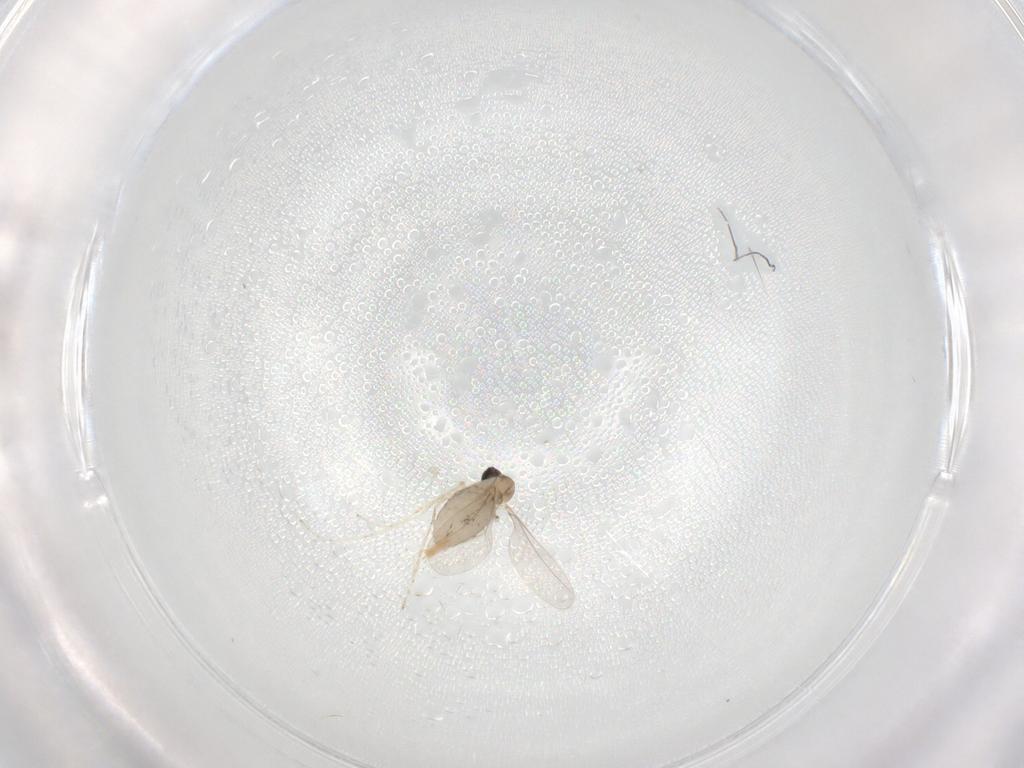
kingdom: Animalia
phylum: Arthropoda
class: Insecta
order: Diptera
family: Cecidomyiidae
